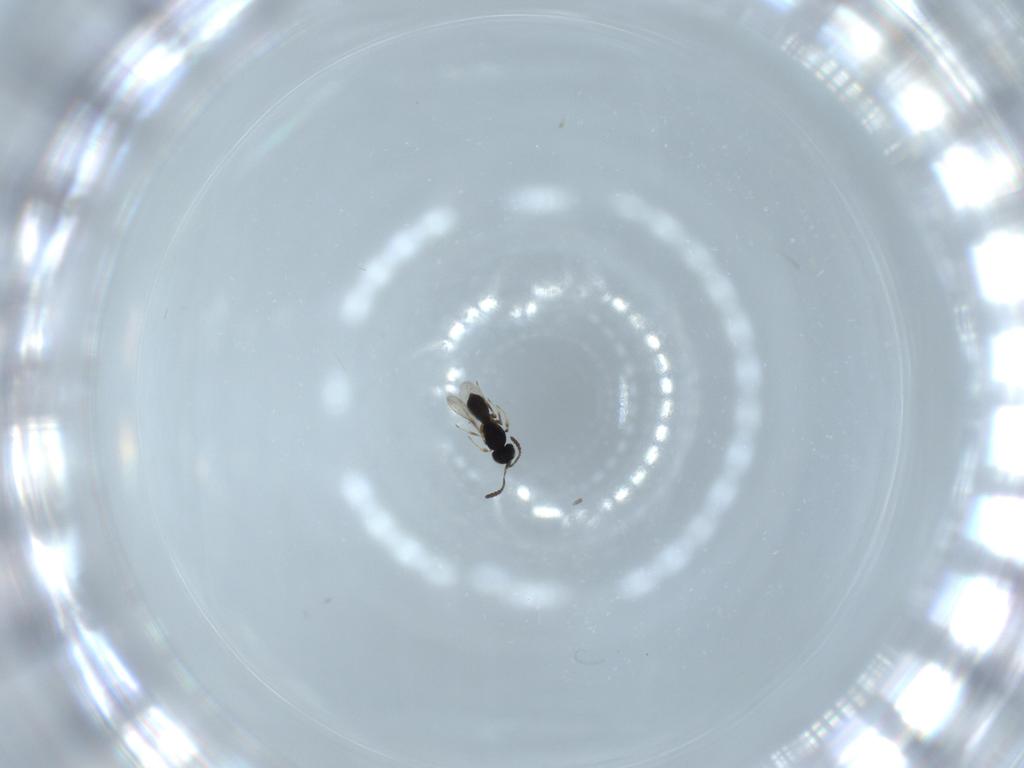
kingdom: Animalia
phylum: Arthropoda
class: Insecta
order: Hymenoptera
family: Scelionidae
